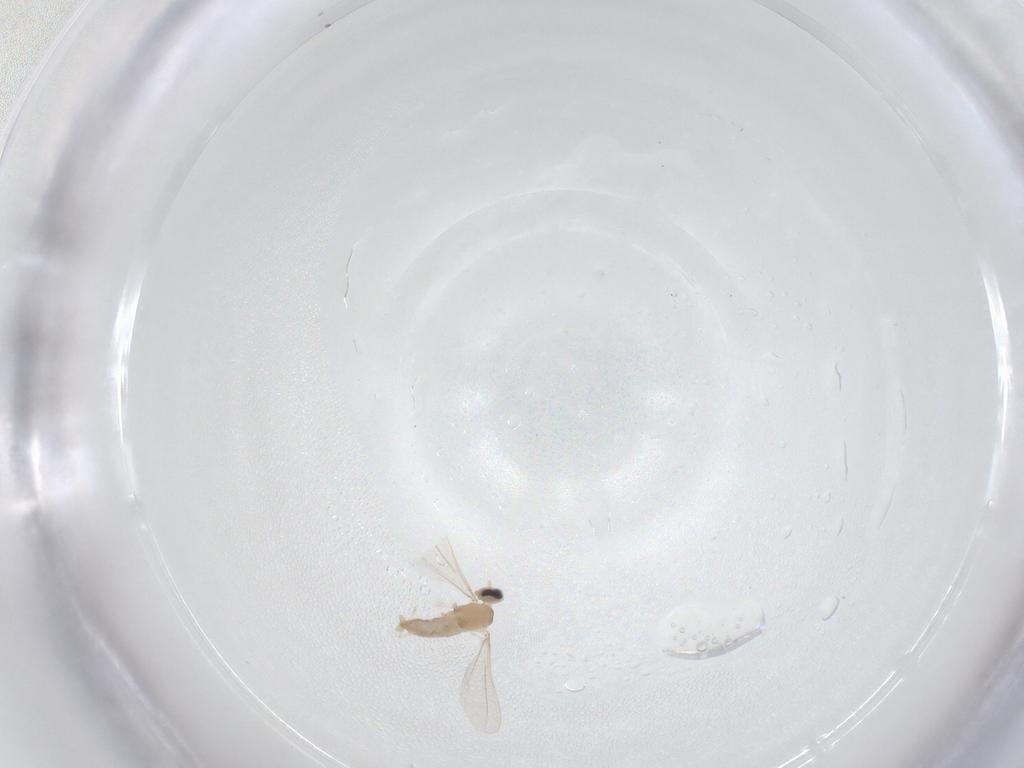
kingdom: Animalia
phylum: Arthropoda
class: Insecta
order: Diptera
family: Cecidomyiidae
